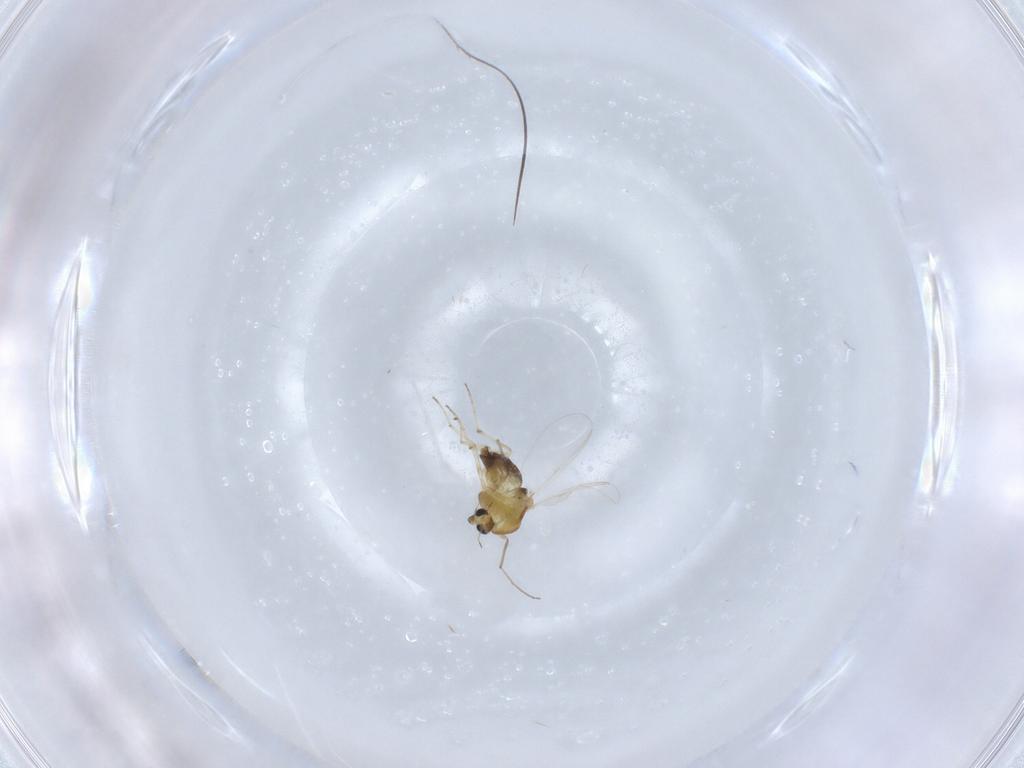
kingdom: Animalia
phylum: Arthropoda
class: Insecta
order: Diptera
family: Chironomidae
